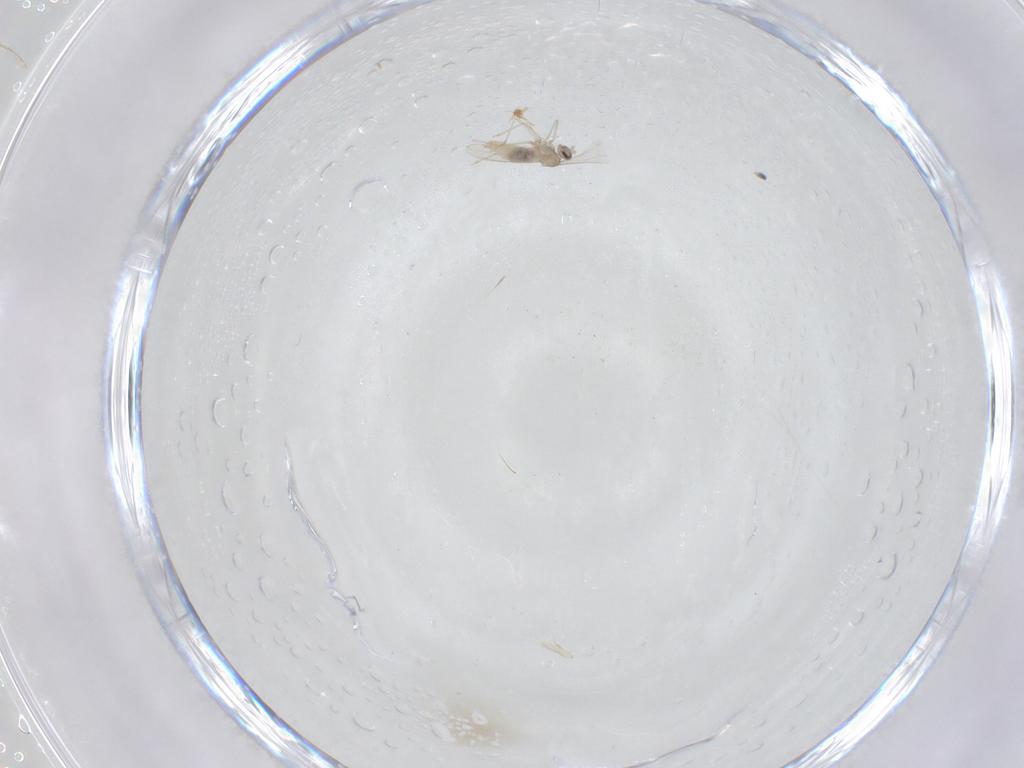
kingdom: Animalia
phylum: Arthropoda
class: Insecta
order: Diptera
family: Sciaridae
